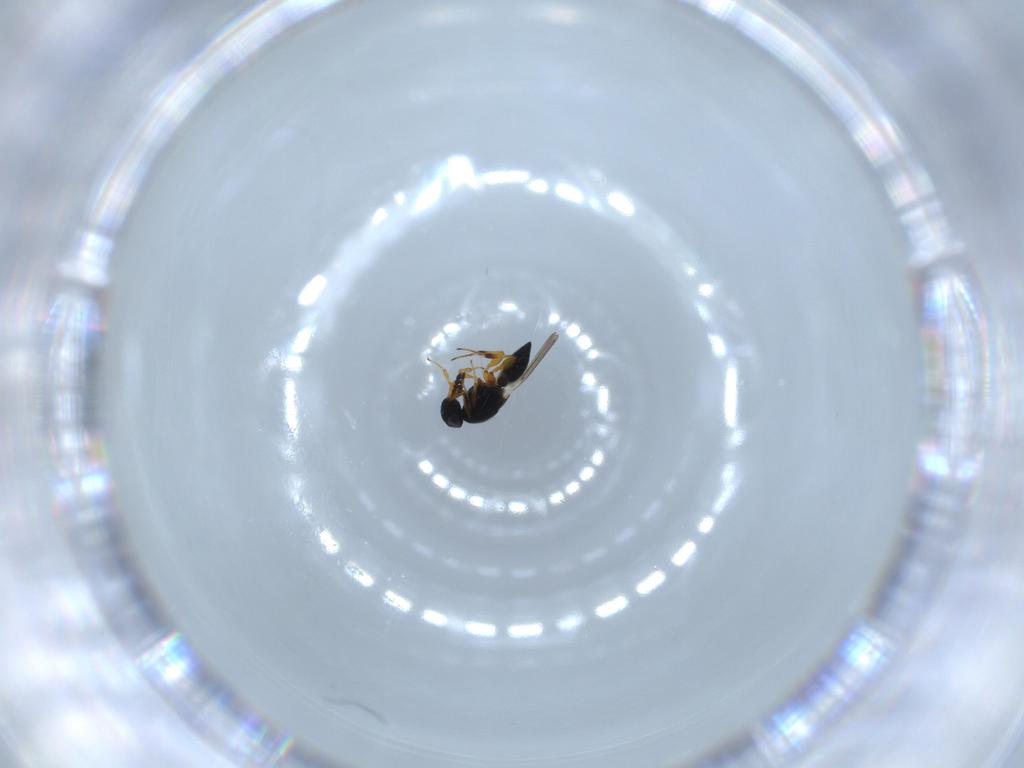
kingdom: Animalia
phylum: Arthropoda
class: Insecta
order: Hymenoptera
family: Platygastridae
